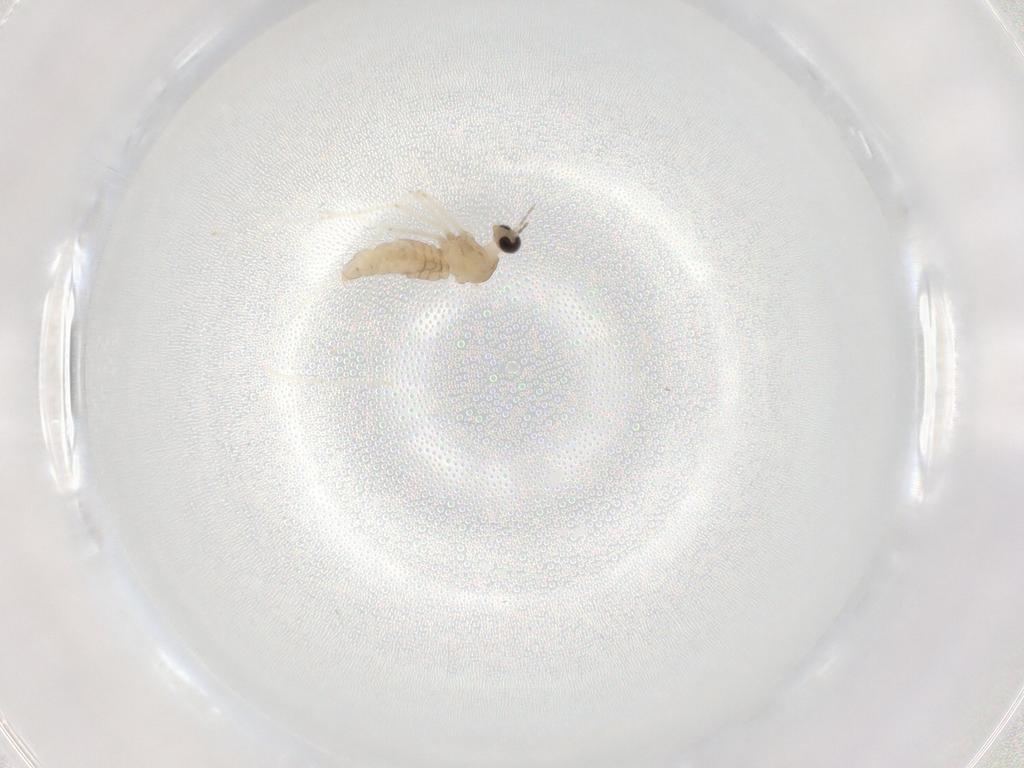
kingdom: Animalia
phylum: Arthropoda
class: Insecta
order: Diptera
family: Cecidomyiidae
